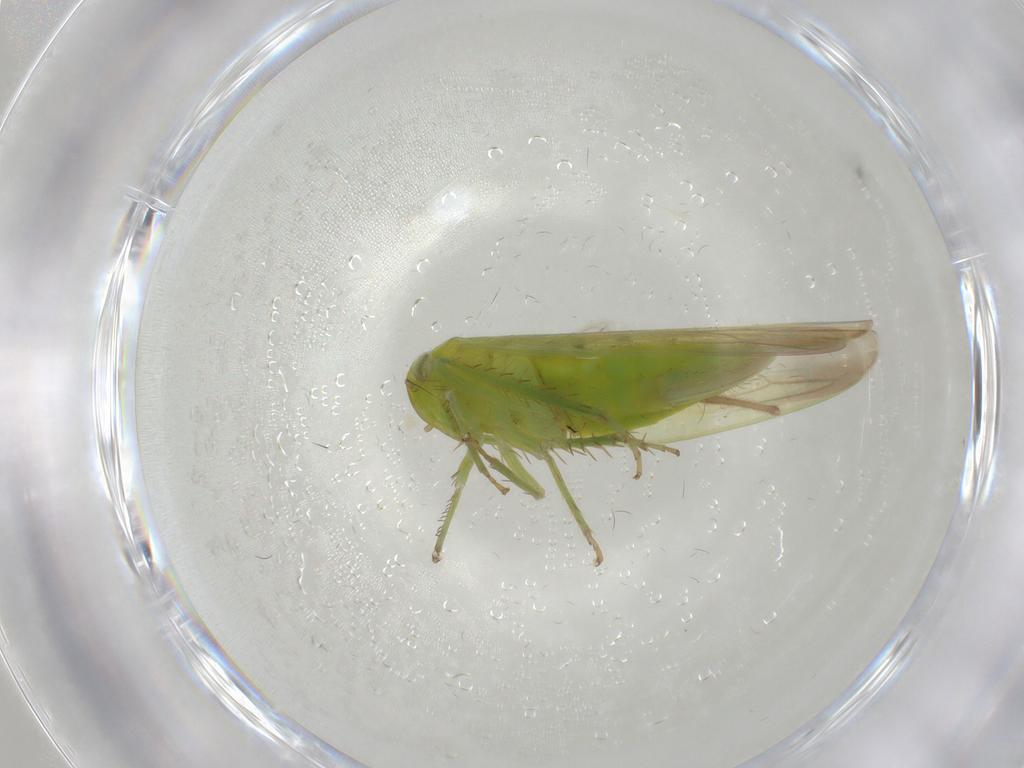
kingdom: Animalia
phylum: Arthropoda
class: Insecta
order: Hemiptera
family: Cicadellidae
